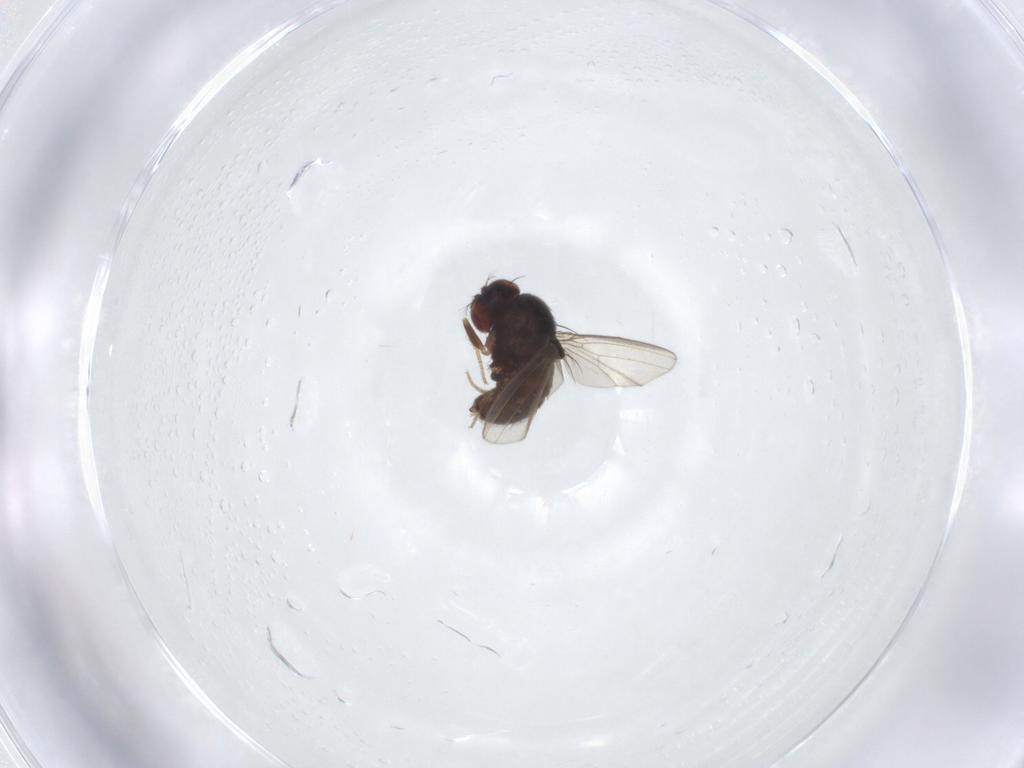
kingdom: Animalia
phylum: Arthropoda
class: Insecta
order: Diptera
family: Drosophilidae
